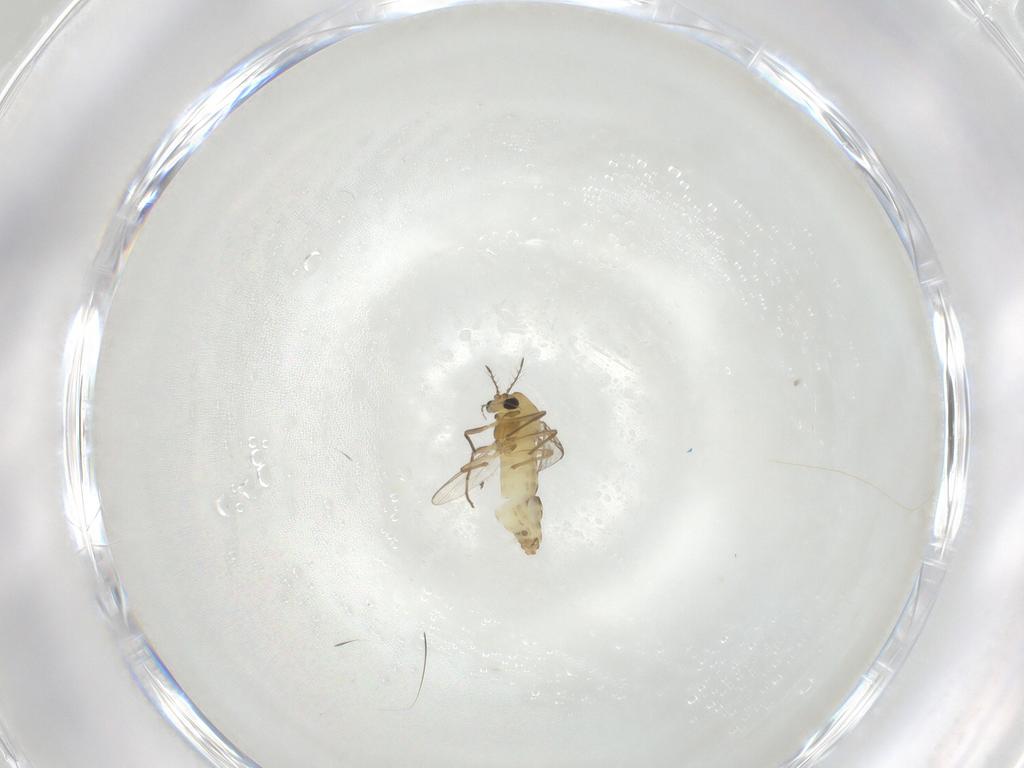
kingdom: Animalia
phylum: Arthropoda
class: Insecta
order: Diptera
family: Chironomidae
